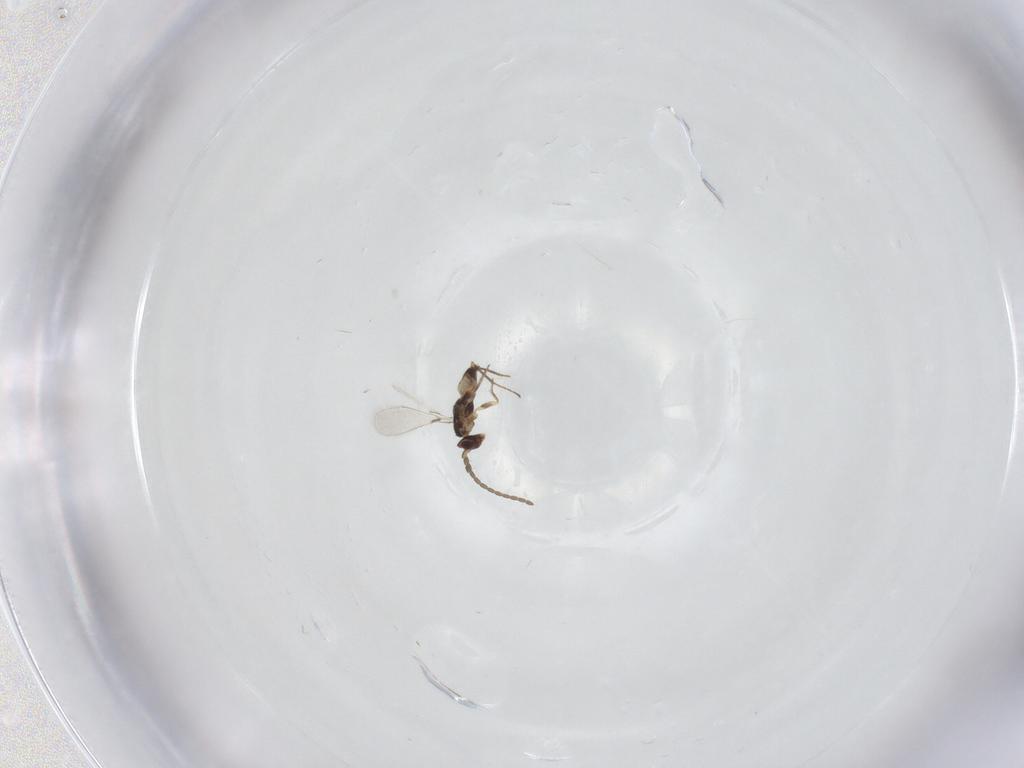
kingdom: Animalia
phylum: Arthropoda
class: Insecta
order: Hymenoptera
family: Mymaridae
